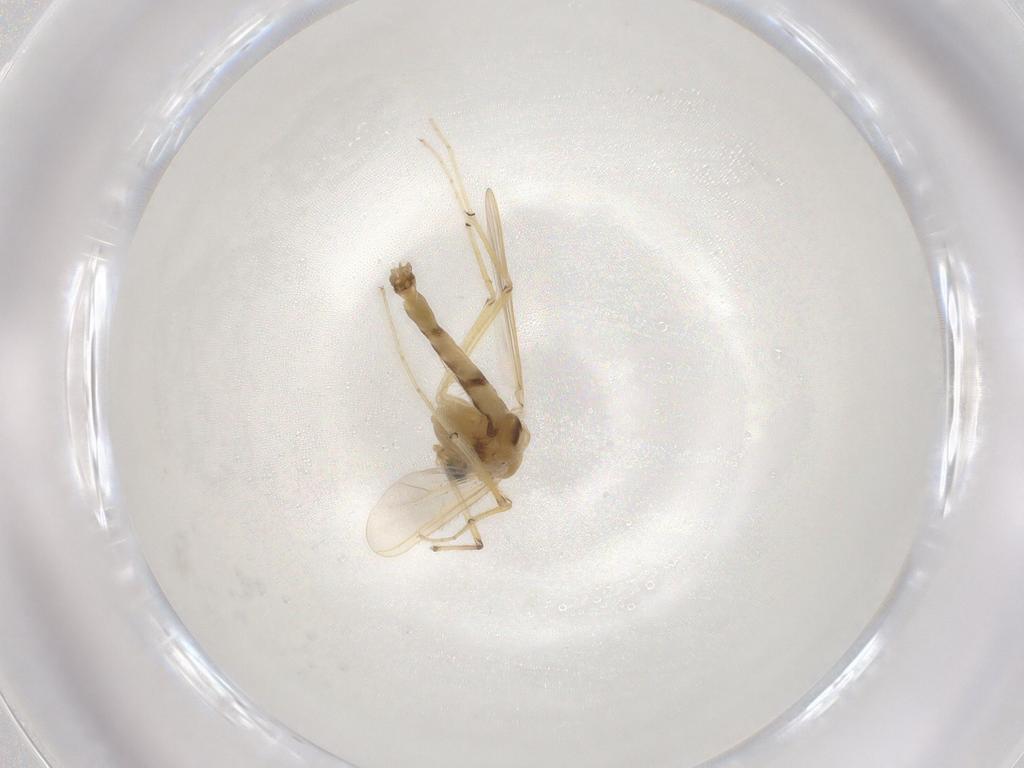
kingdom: Animalia
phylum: Arthropoda
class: Insecta
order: Diptera
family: Chironomidae
